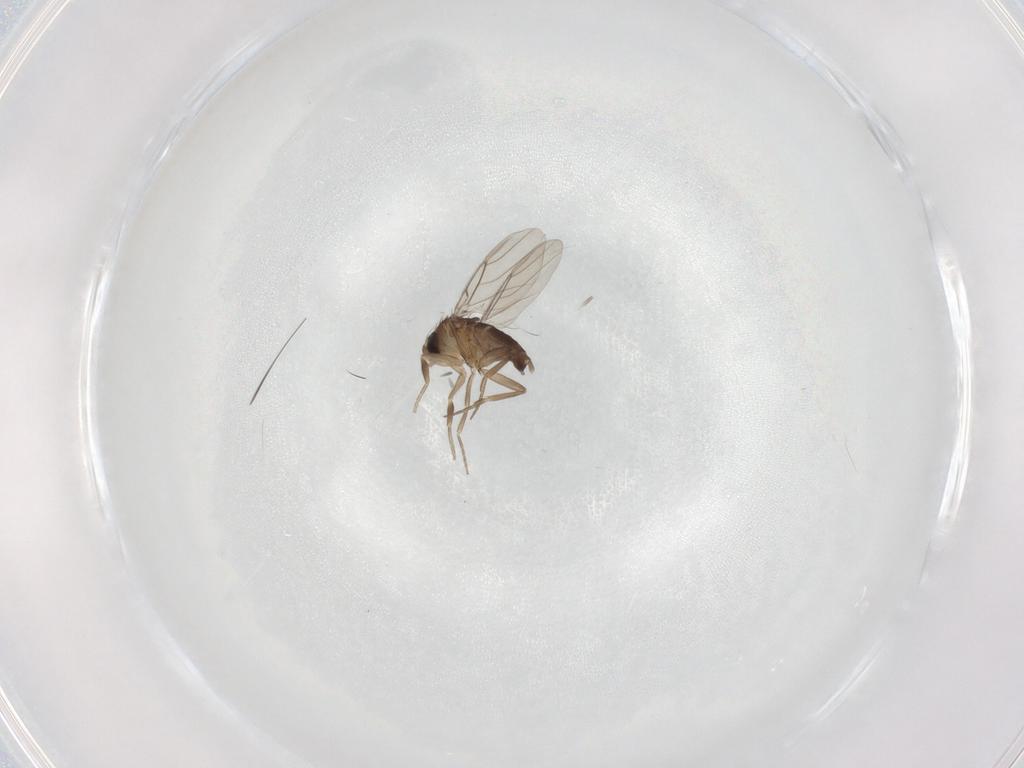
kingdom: Animalia
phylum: Arthropoda
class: Insecta
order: Diptera
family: Phoridae
